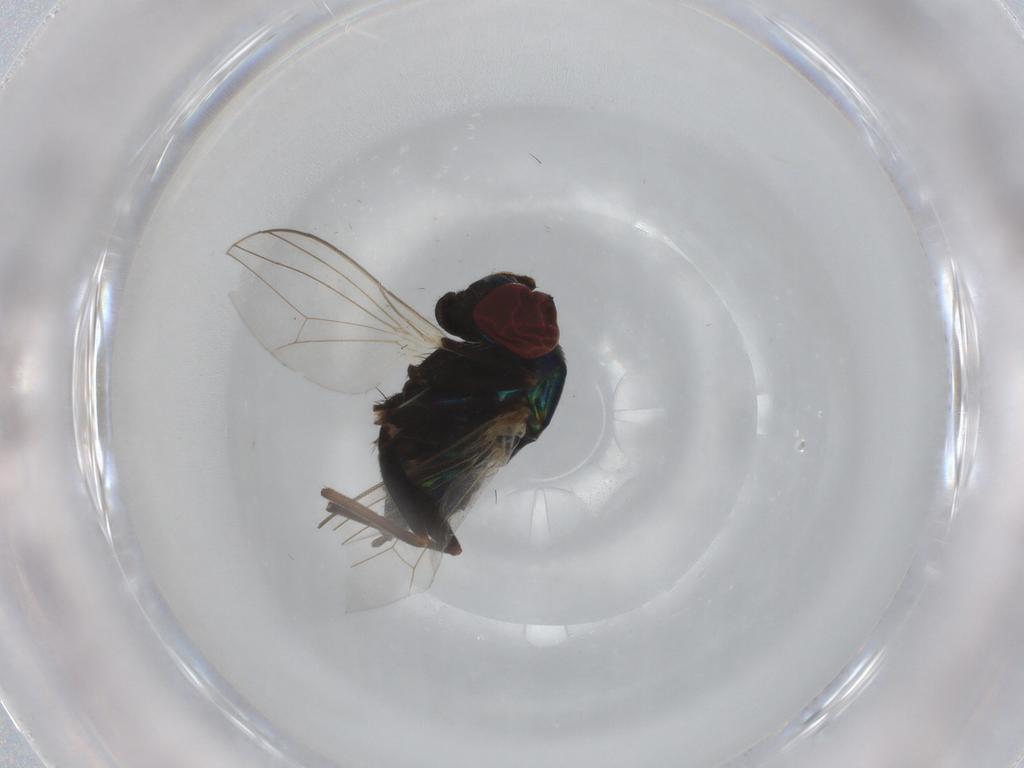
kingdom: Animalia
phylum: Arthropoda
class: Insecta
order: Diptera
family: Dolichopodidae
